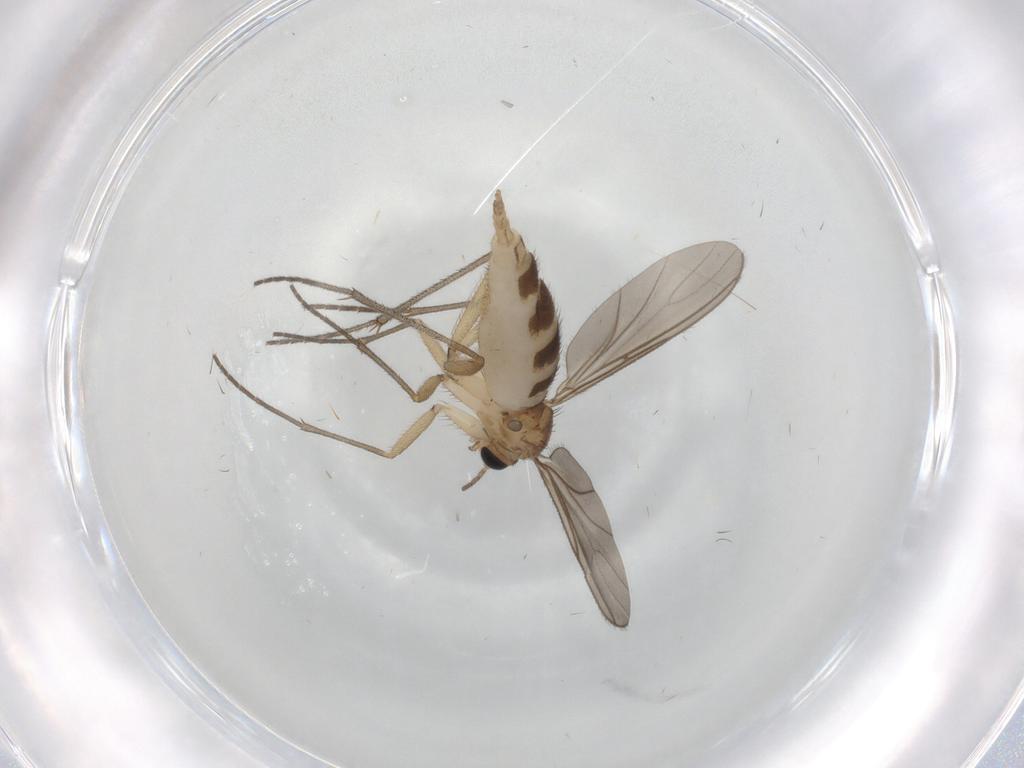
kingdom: Animalia
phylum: Arthropoda
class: Insecta
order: Diptera
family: Sciaridae
